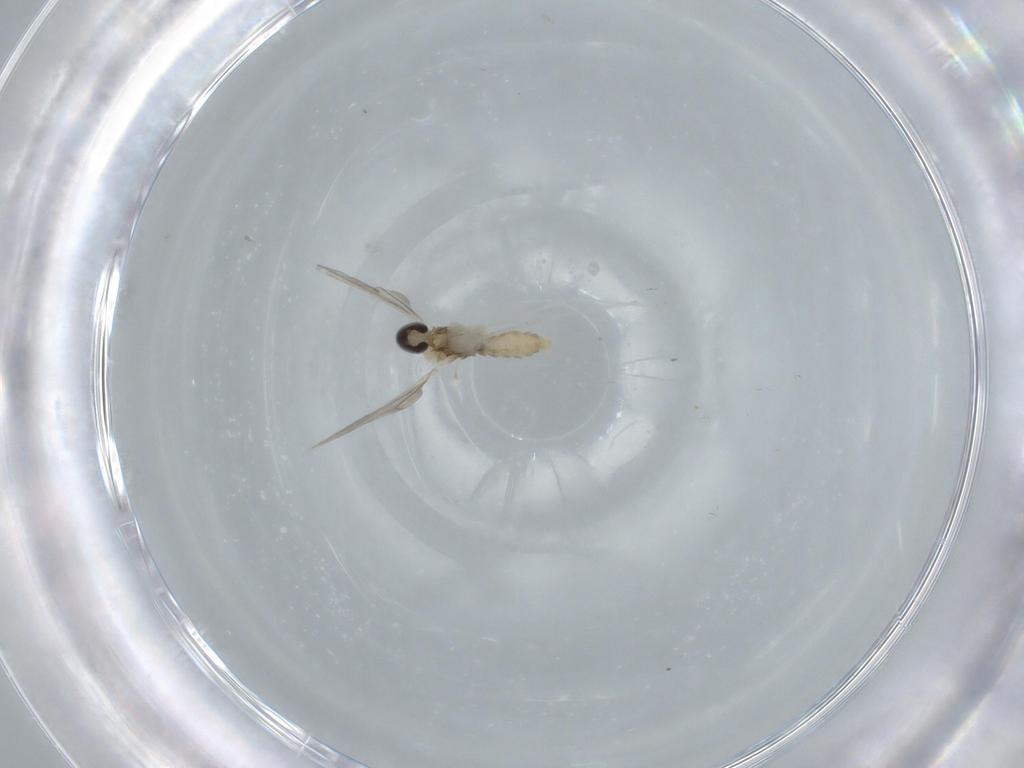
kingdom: Animalia
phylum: Arthropoda
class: Insecta
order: Diptera
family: Cecidomyiidae
